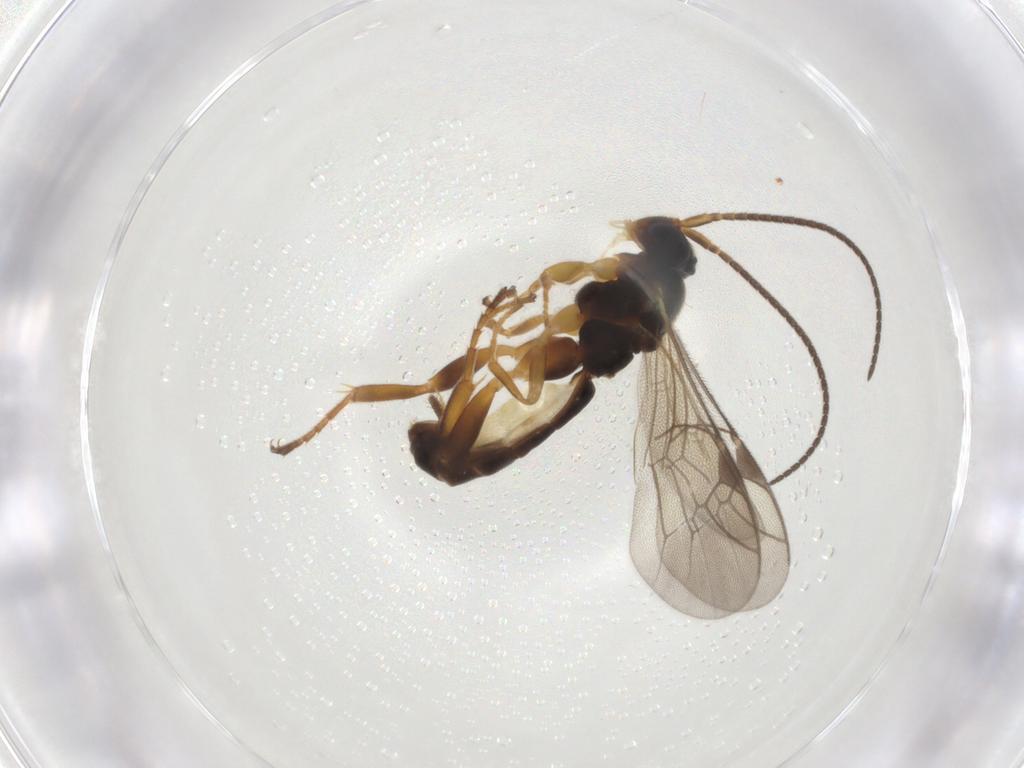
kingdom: Animalia
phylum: Arthropoda
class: Insecta
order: Hymenoptera
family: Ichneumonidae
